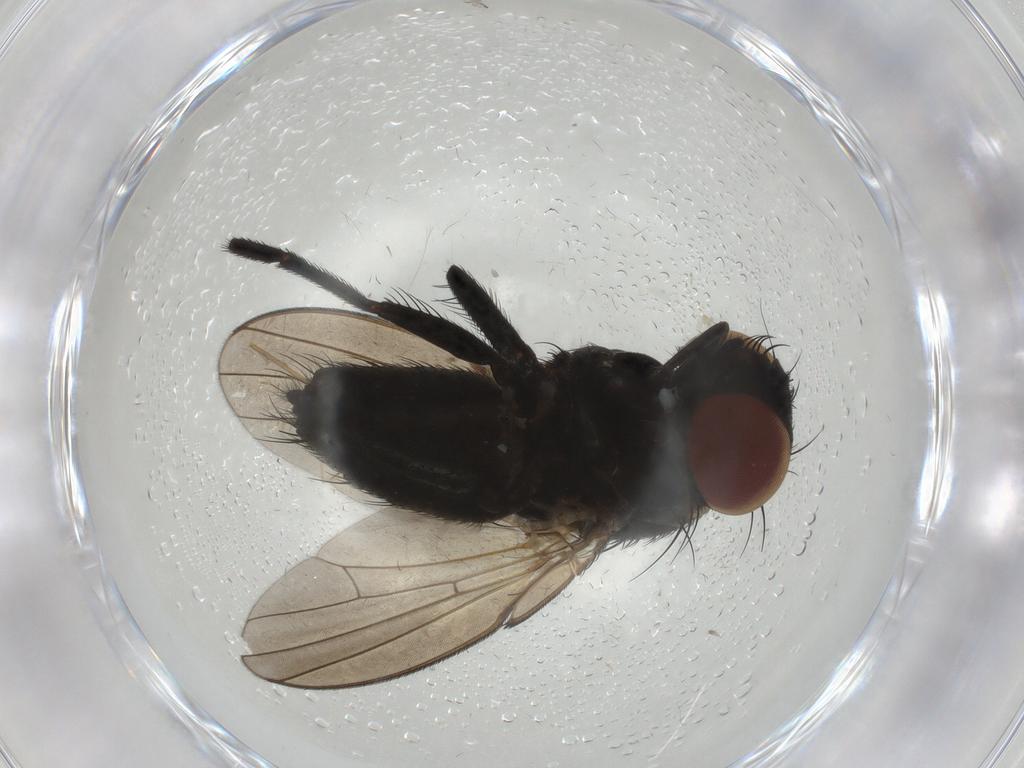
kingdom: Animalia
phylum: Arthropoda
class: Insecta
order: Diptera
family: Milichiidae
